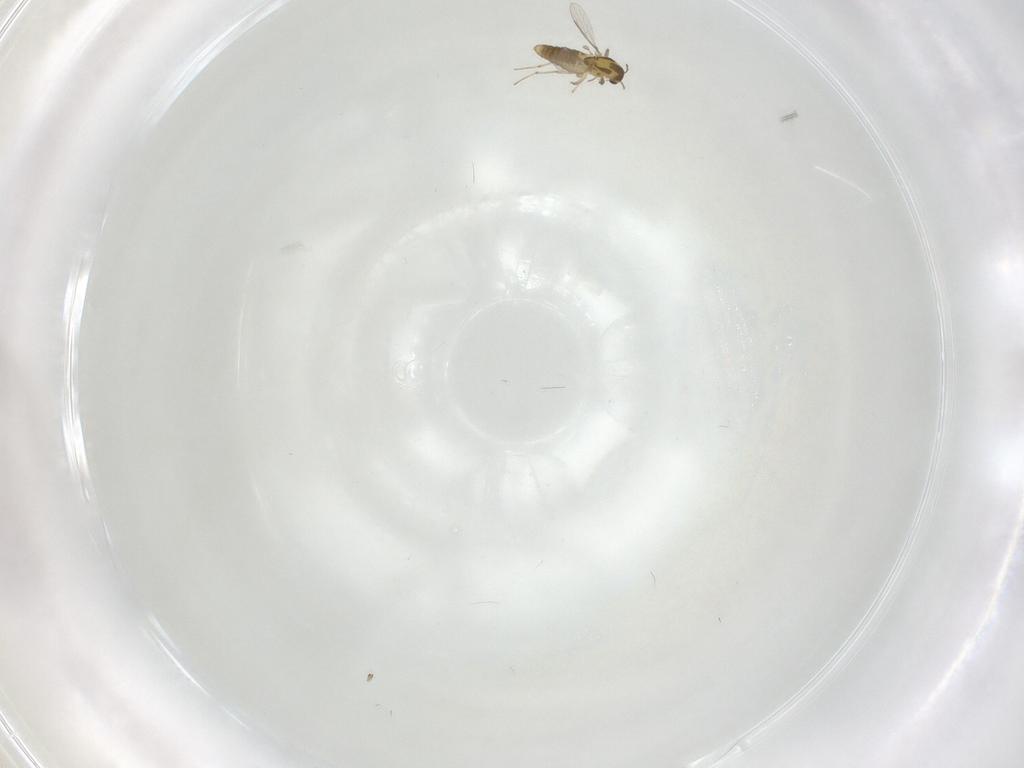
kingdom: Animalia
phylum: Arthropoda
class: Insecta
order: Diptera
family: Chironomidae
